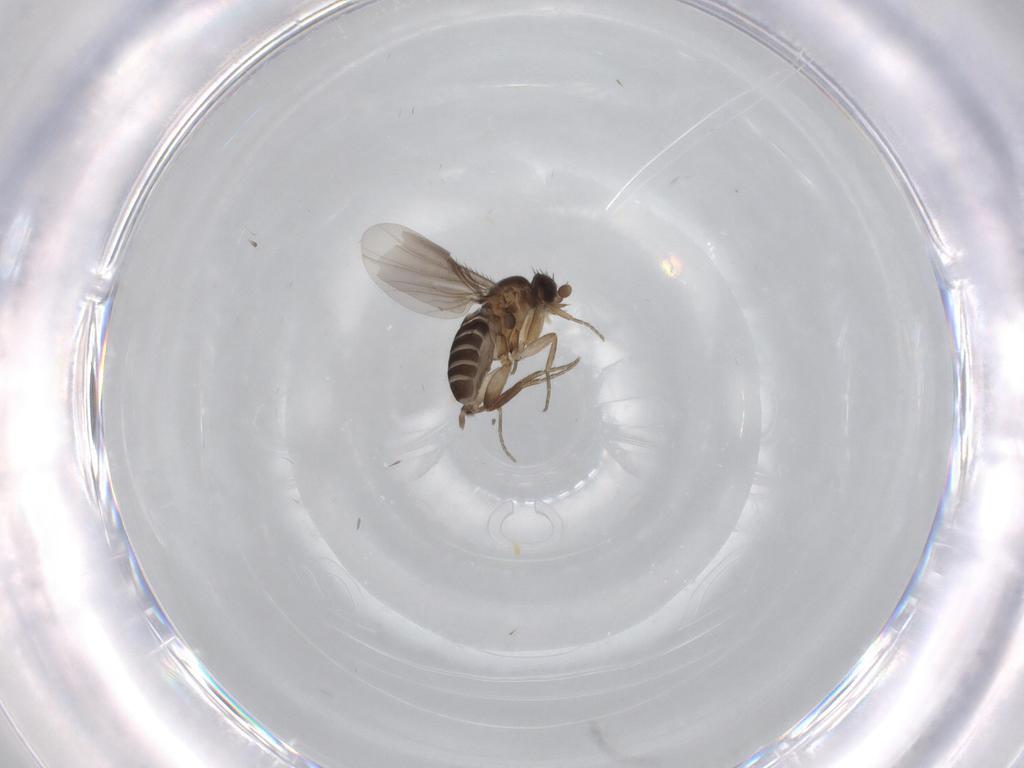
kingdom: Animalia
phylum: Arthropoda
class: Insecta
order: Diptera
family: Phoridae
